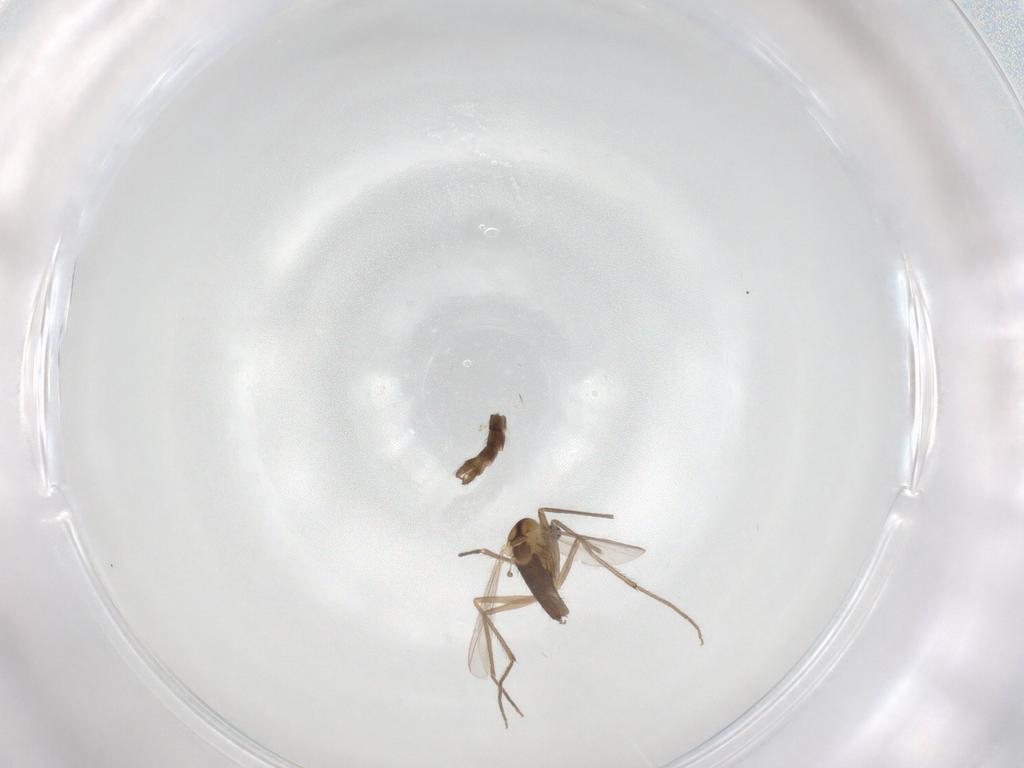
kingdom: Animalia
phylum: Arthropoda
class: Insecta
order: Diptera
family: Chironomidae
